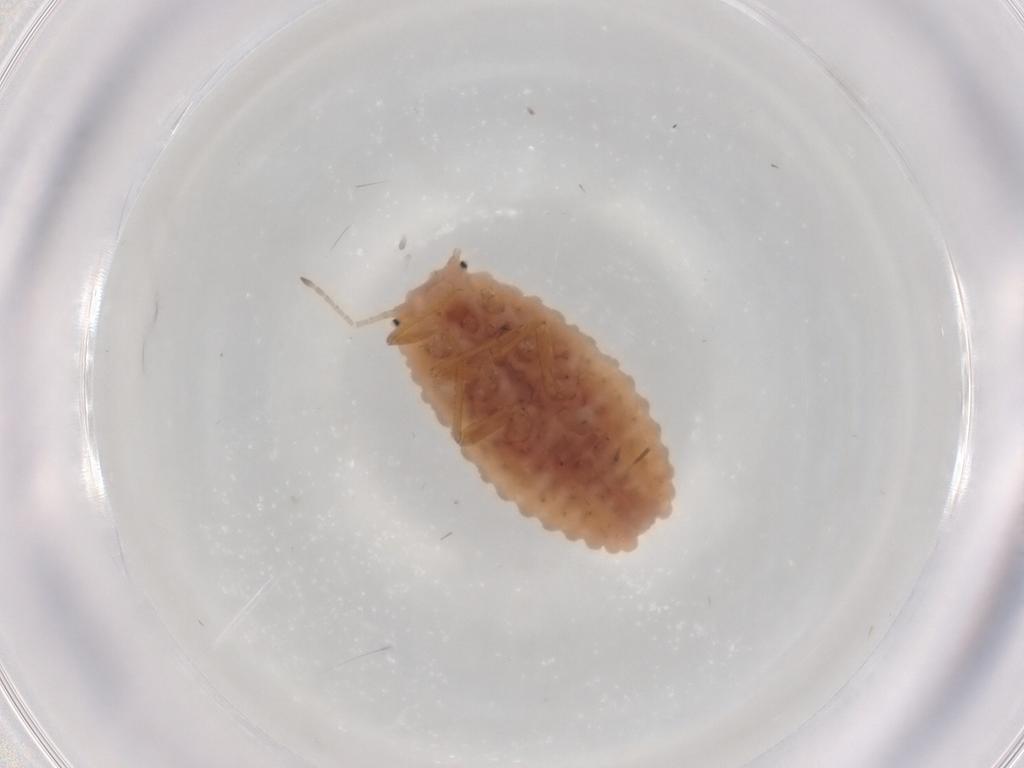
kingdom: Animalia
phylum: Arthropoda
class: Insecta
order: Hemiptera
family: Coccoidea_incertae_sedis
